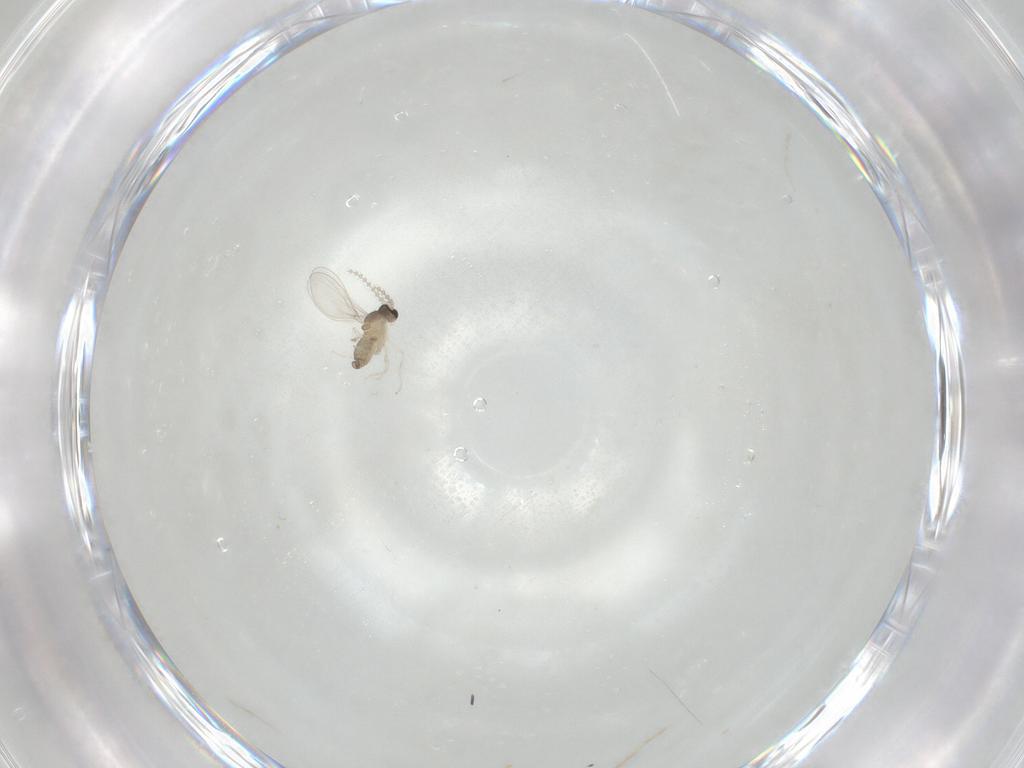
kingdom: Animalia
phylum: Arthropoda
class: Insecta
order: Diptera
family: Cecidomyiidae
